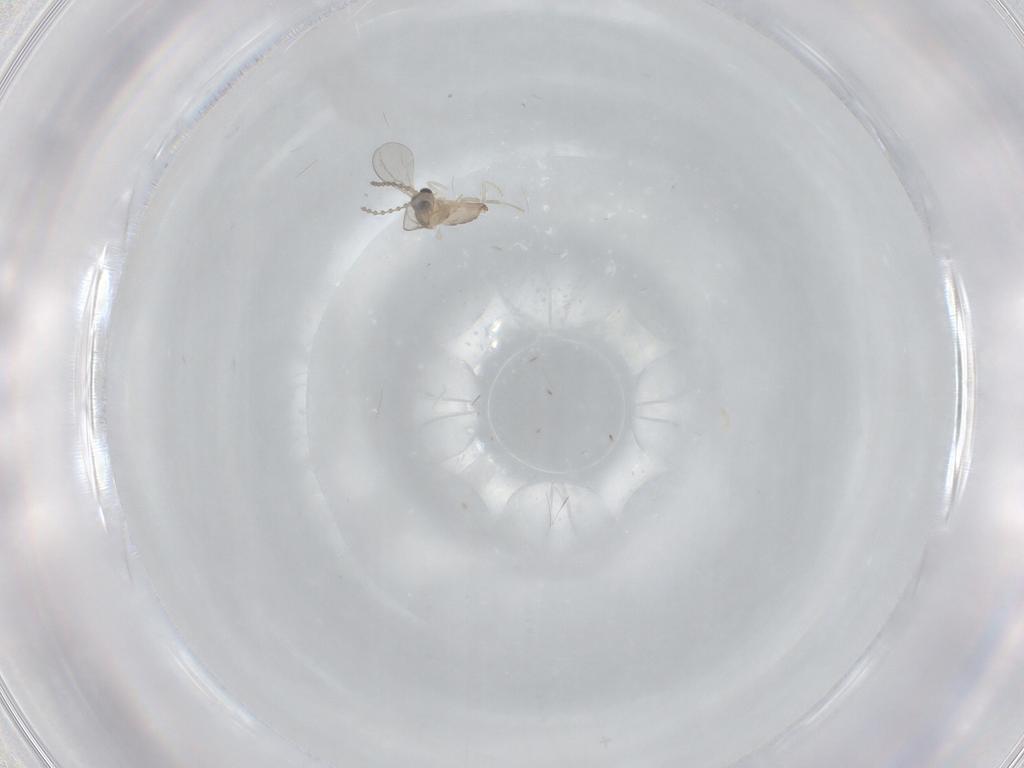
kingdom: Animalia
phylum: Arthropoda
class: Insecta
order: Diptera
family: Cecidomyiidae
